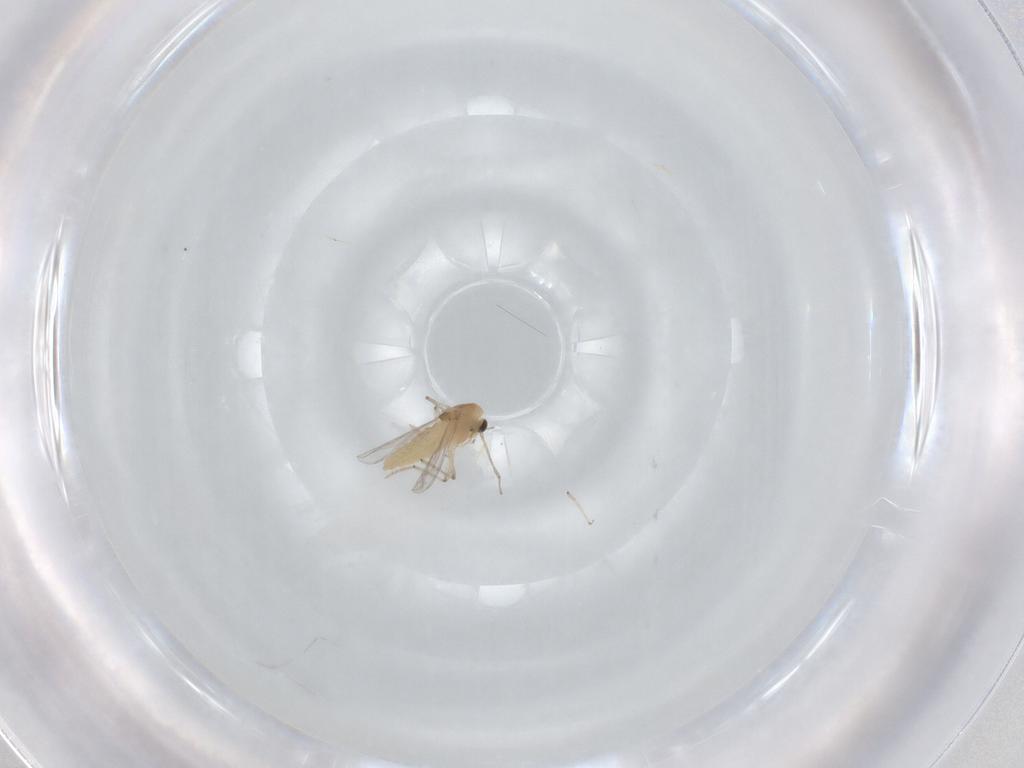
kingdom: Animalia
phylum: Arthropoda
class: Insecta
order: Diptera
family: Chironomidae
